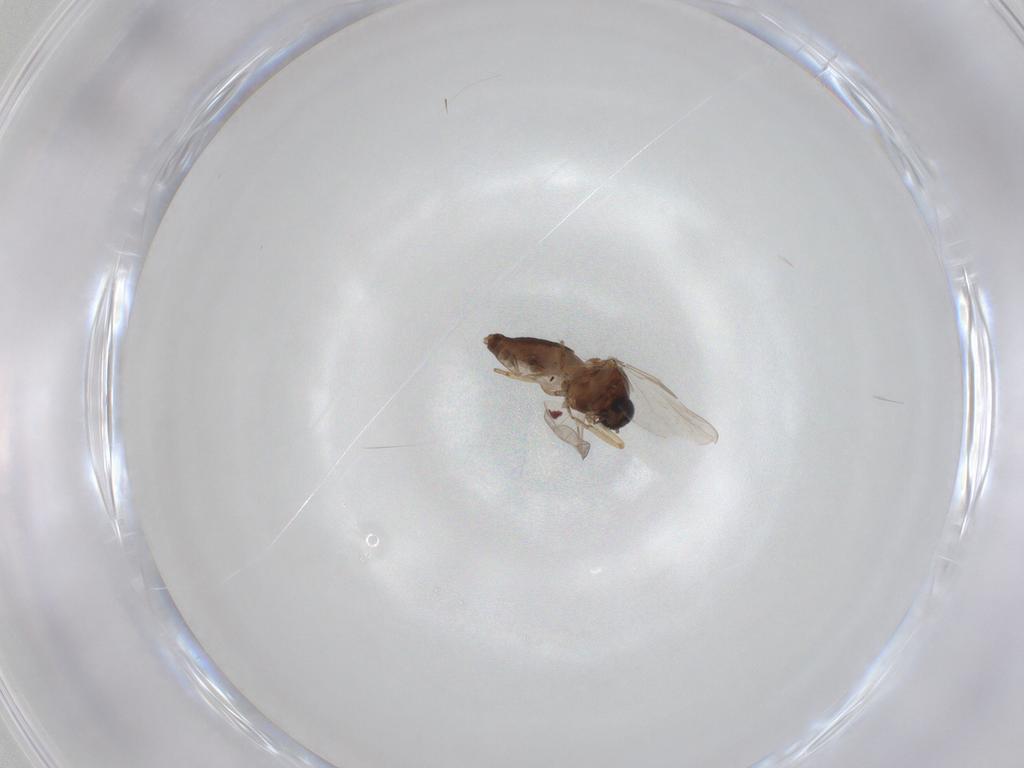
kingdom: Animalia
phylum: Arthropoda
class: Insecta
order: Diptera
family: Ceratopogonidae
